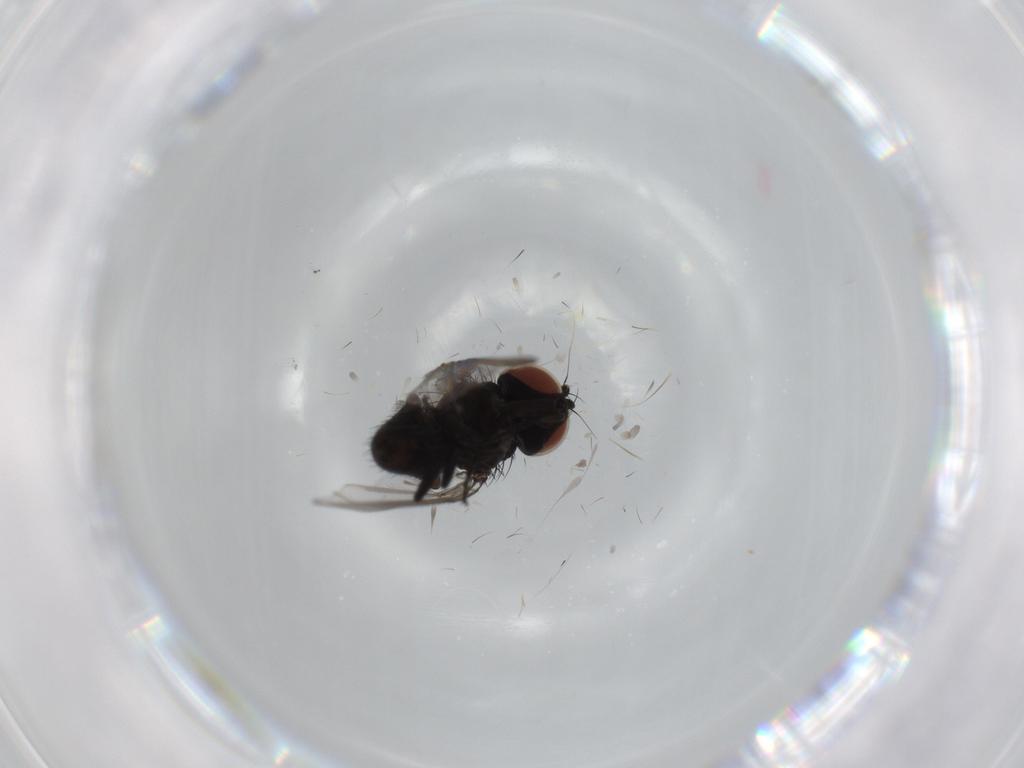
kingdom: Animalia
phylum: Arthropoda
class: Insecta
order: Diptera
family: Milichiidae
